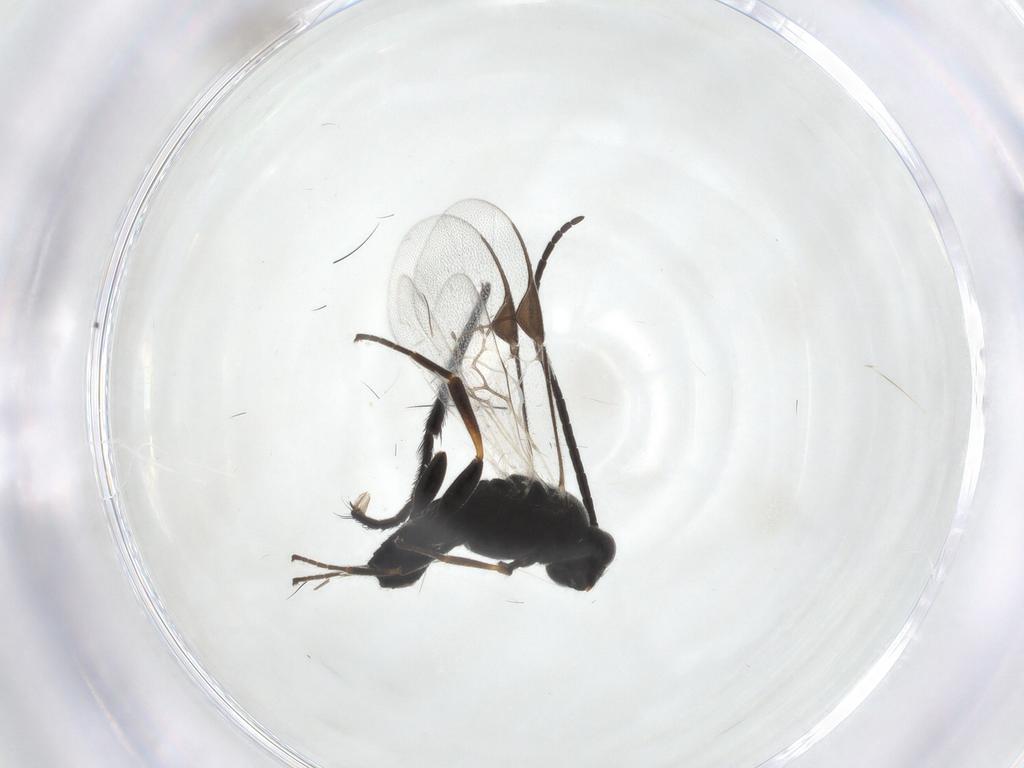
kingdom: Animalia
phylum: Arthropoda
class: Insecta
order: Hymenoptera
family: Braconidae
